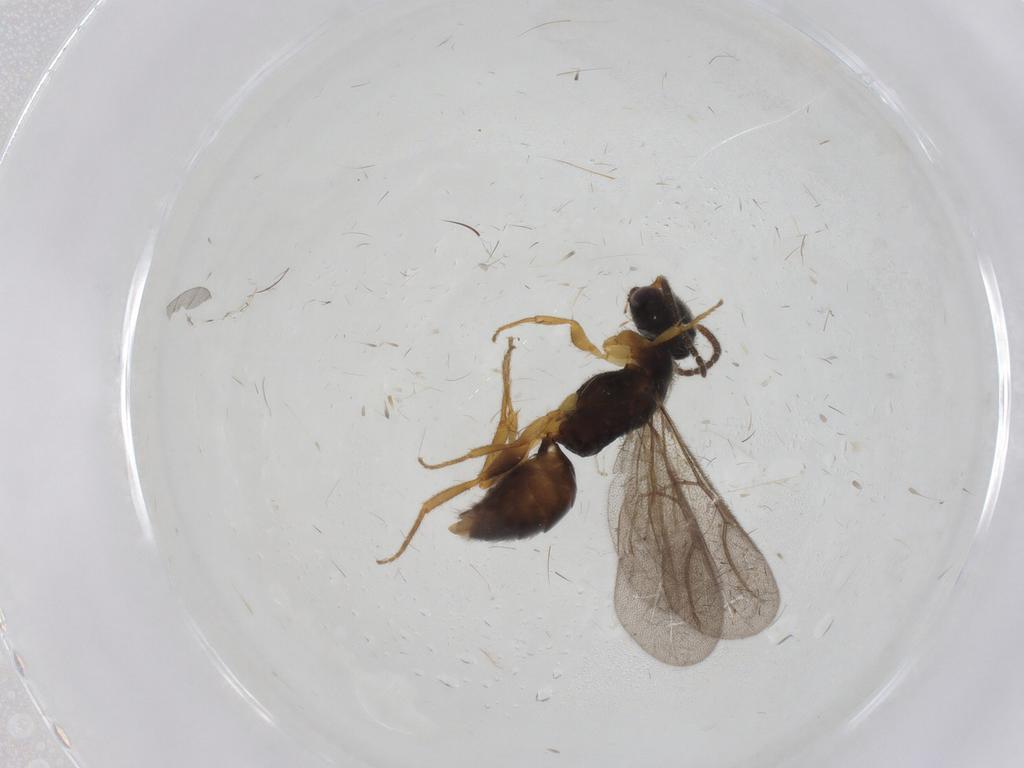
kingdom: Animalia
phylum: Arthropoda
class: Insecta
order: Hymenoptera
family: Bethylidae
